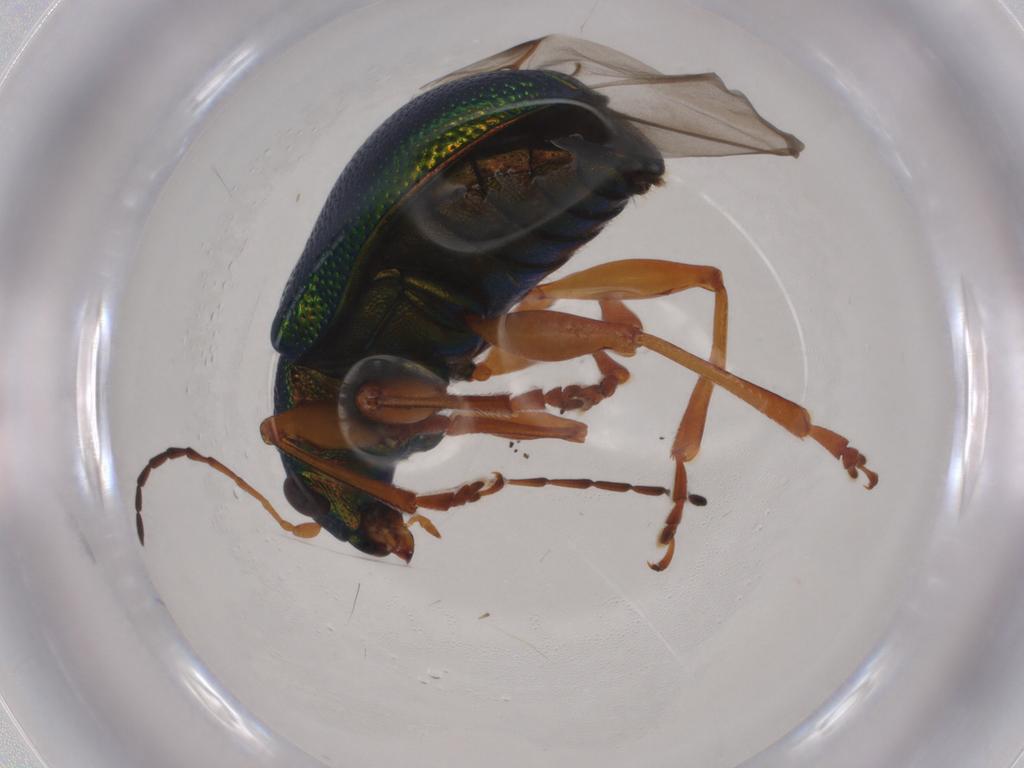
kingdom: Animalia
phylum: Arthropoda
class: Insecta
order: Coleoptera
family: Chrysomelidae
